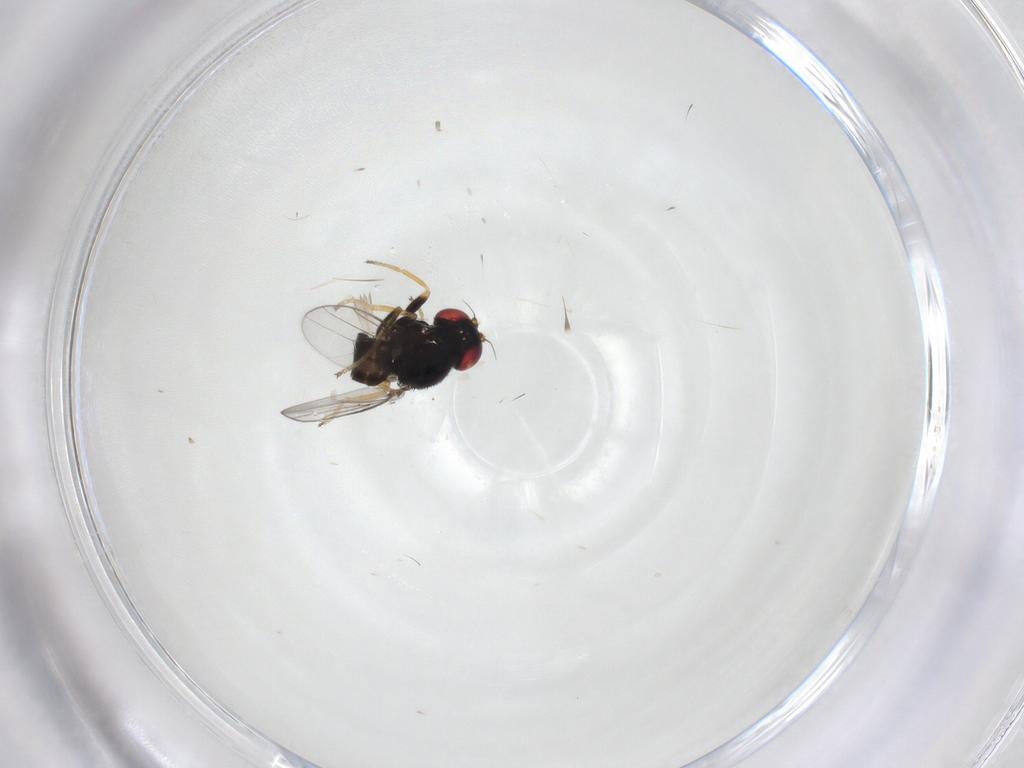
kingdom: Animalia
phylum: Arthropoda
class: Insecta
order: Diptera
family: Chloropidae
